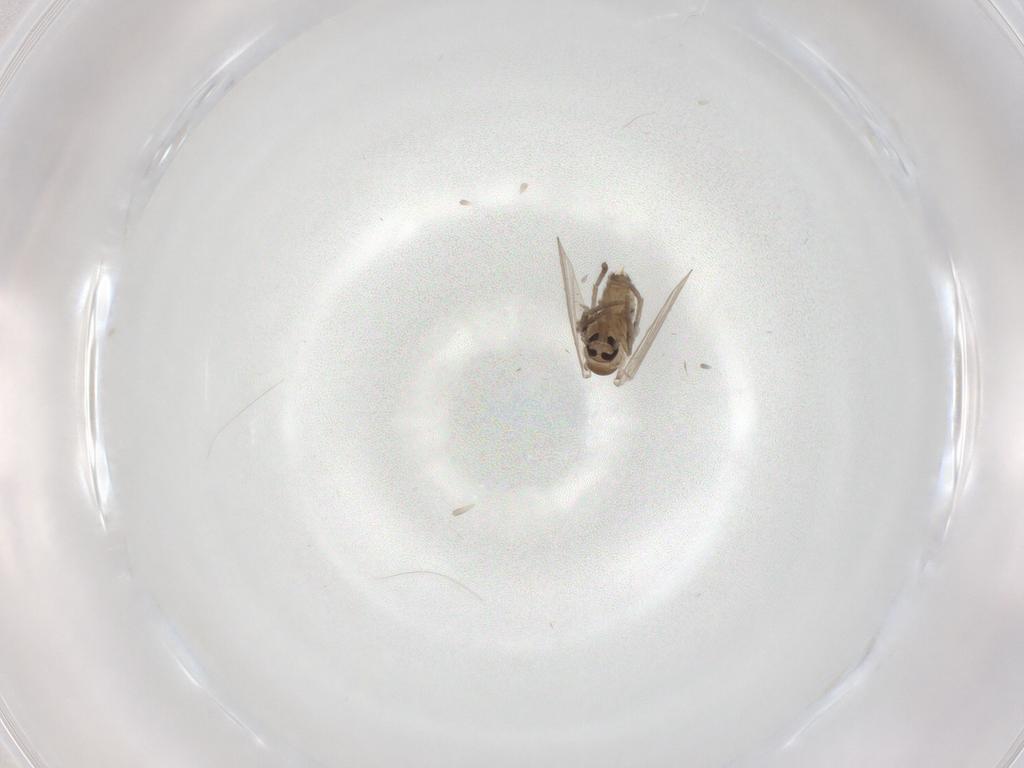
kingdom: Animalia
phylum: Arthropoda
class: Insecta
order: Diptera
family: Psychodidae
